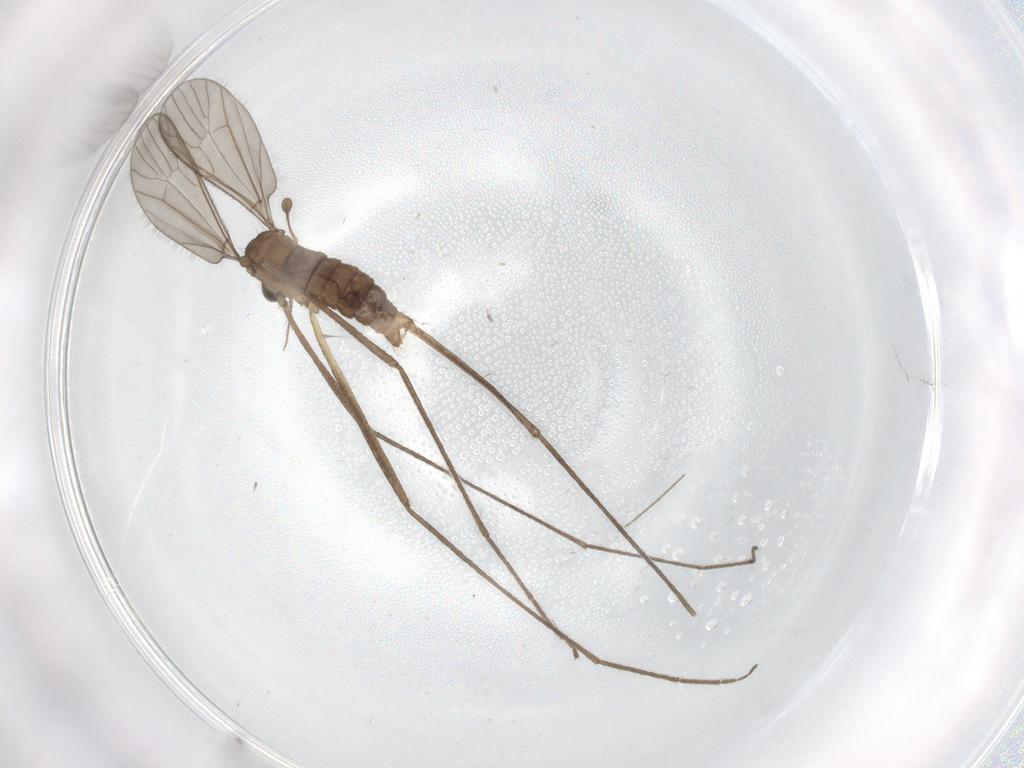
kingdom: Animalia
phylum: Arthropoda
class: Insecta
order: Diptera
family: Limoniidae
